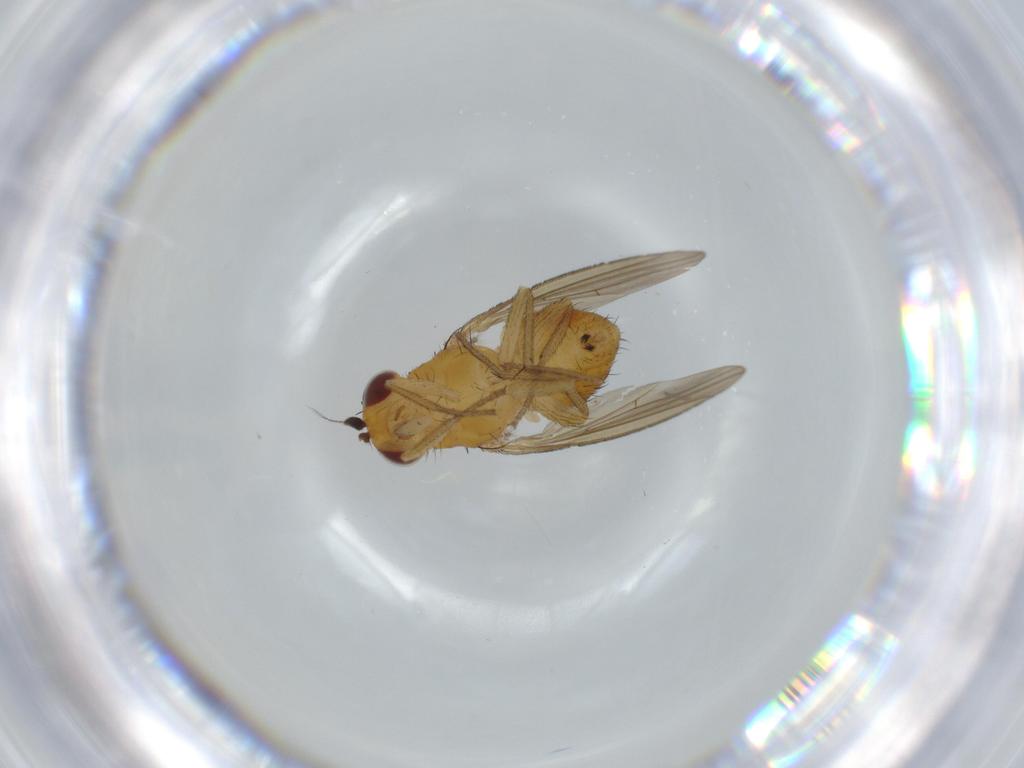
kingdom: Animalia
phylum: Arthropoda
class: Insecta
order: Diptera
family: Lauxaniidae
